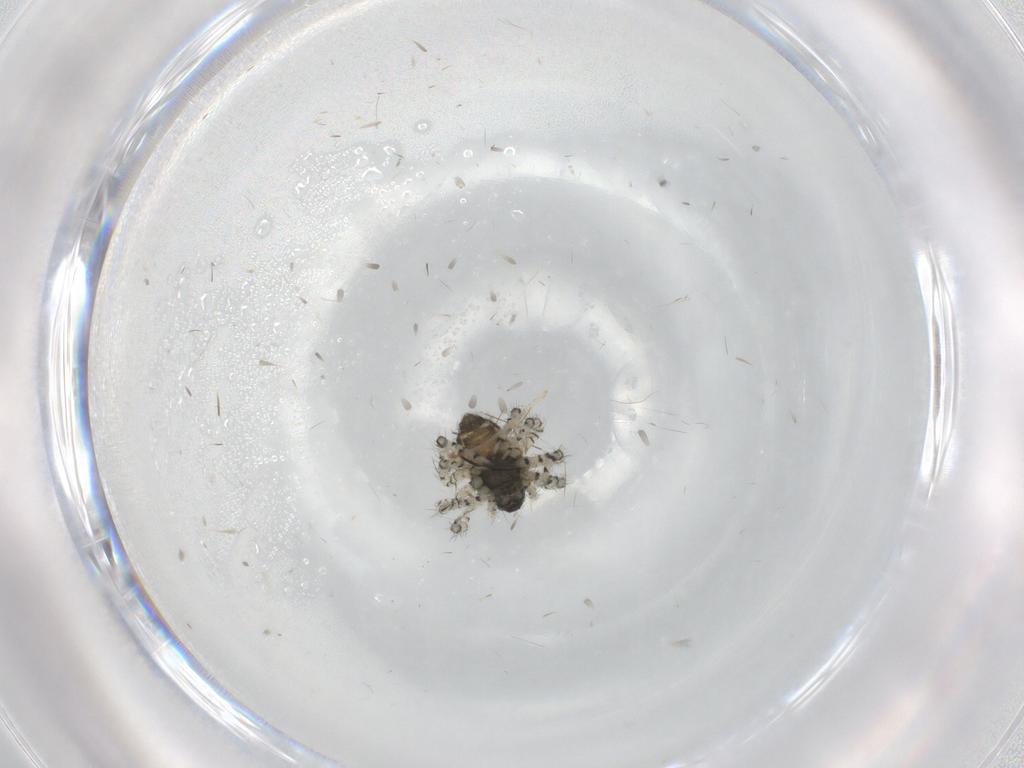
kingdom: Animalia
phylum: Arthropoda
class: Arachnida
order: Araneae
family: Theridiidae
